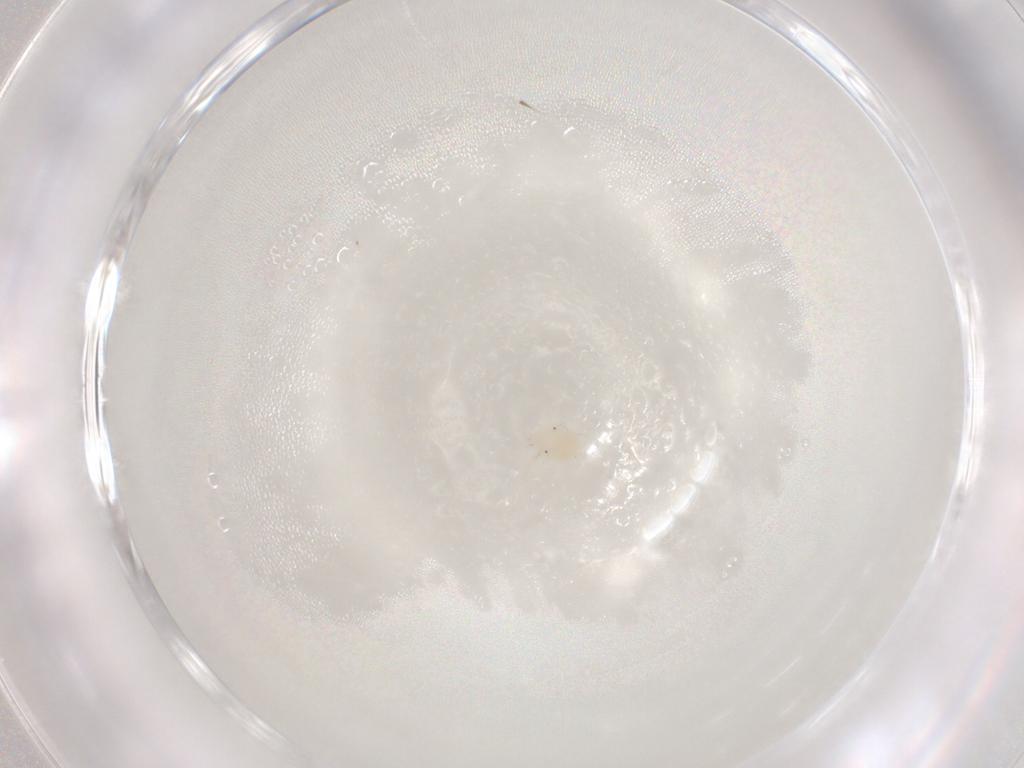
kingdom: Animalia
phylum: Arthropoda
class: Arachnida
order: Trombidiformes
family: Anystidae
